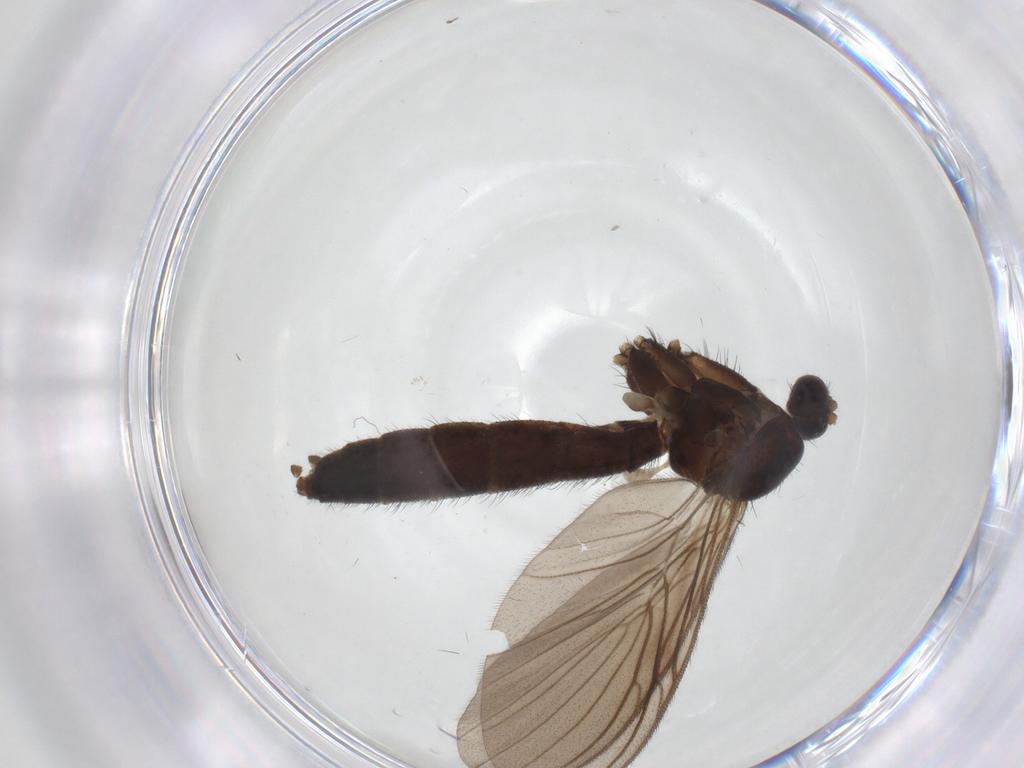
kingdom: Animalia
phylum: Arthropoda
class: Insecta
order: Diptera
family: Keroplatidae
